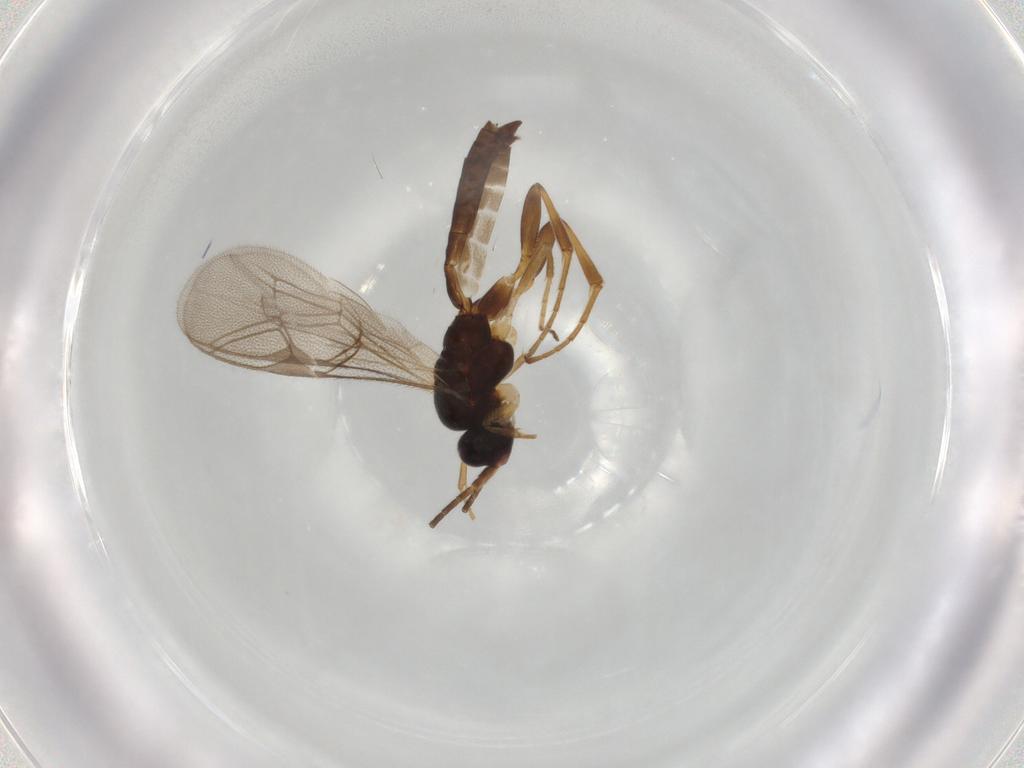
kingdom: Animalia
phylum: Arthropoda
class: Insecta
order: Hymenoptera
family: Ichneumonidae
